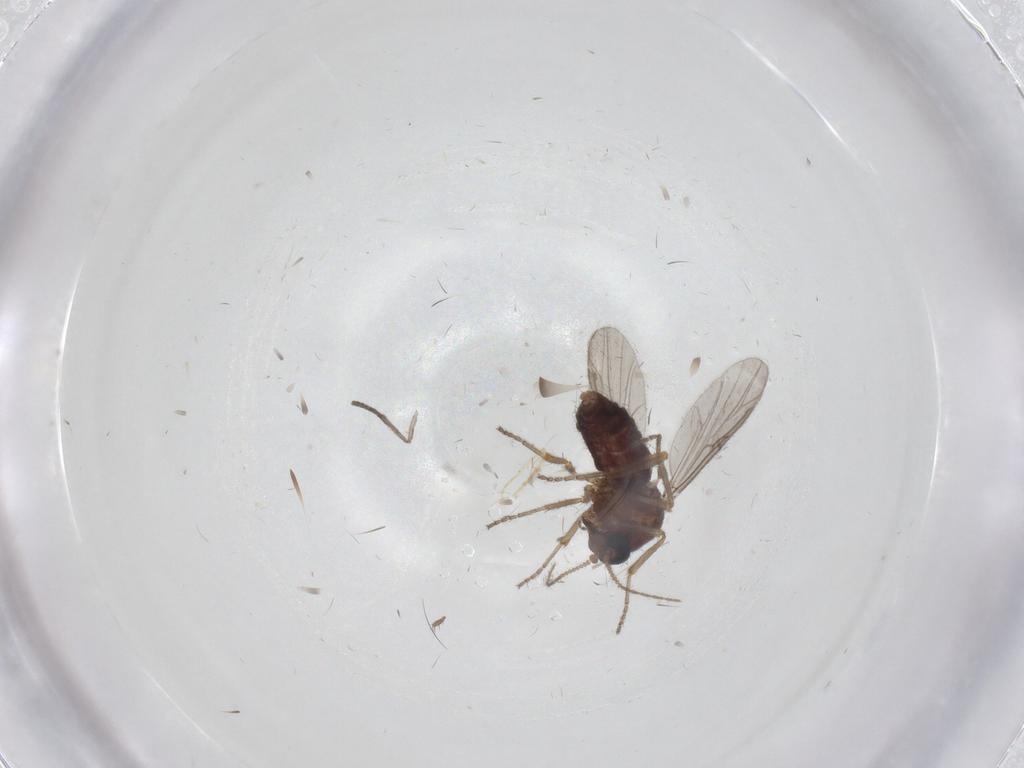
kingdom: Animalia
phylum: Arthropoda
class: Insecta
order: Diptera
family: Ceratopogonidae
